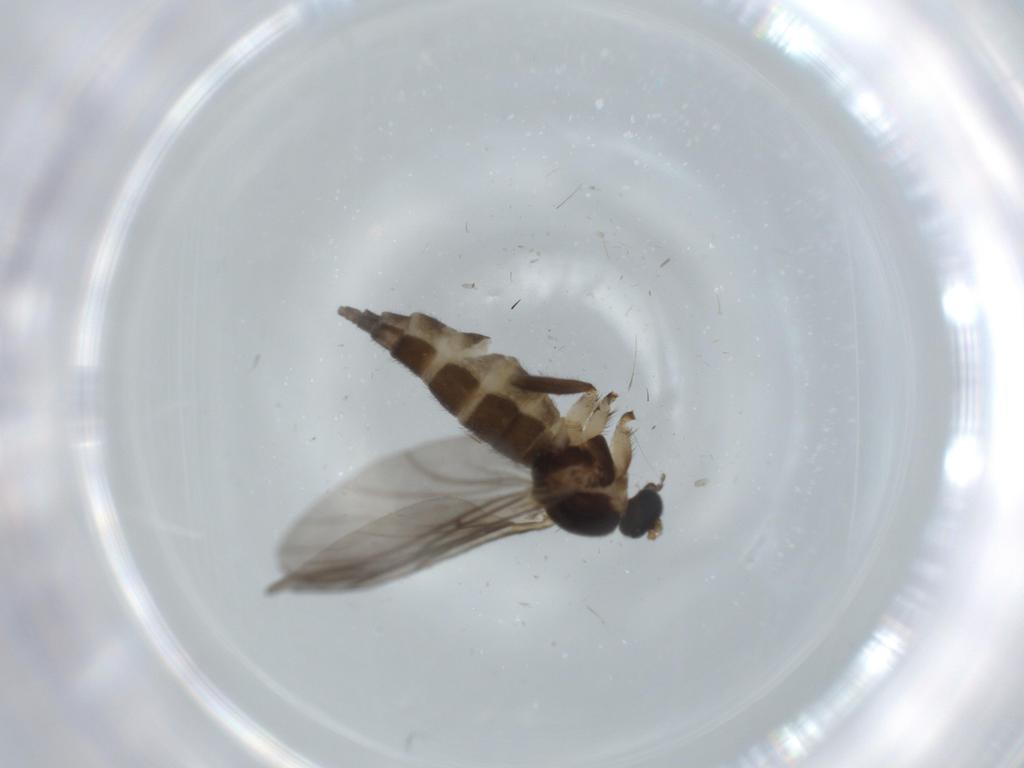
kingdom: Animalia
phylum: Arthropoda
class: Insecta
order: Diptera
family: Sciaridae
